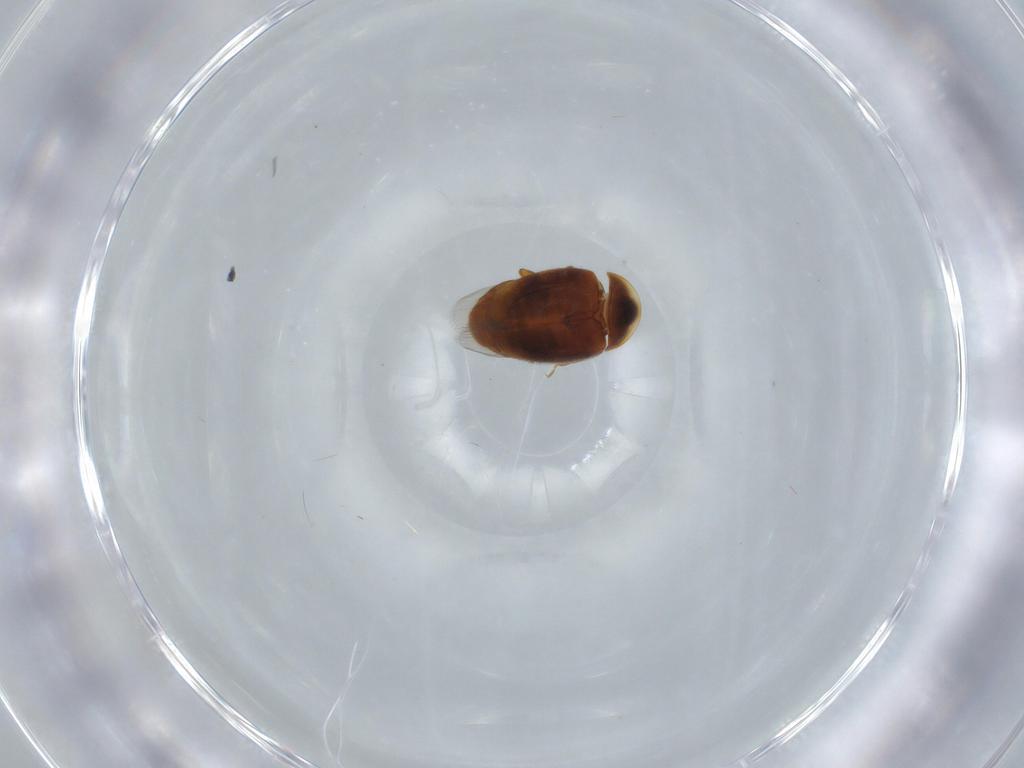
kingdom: Animalia
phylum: Arthropoda
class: Insecta
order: Coleoptera
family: Corylophidae
